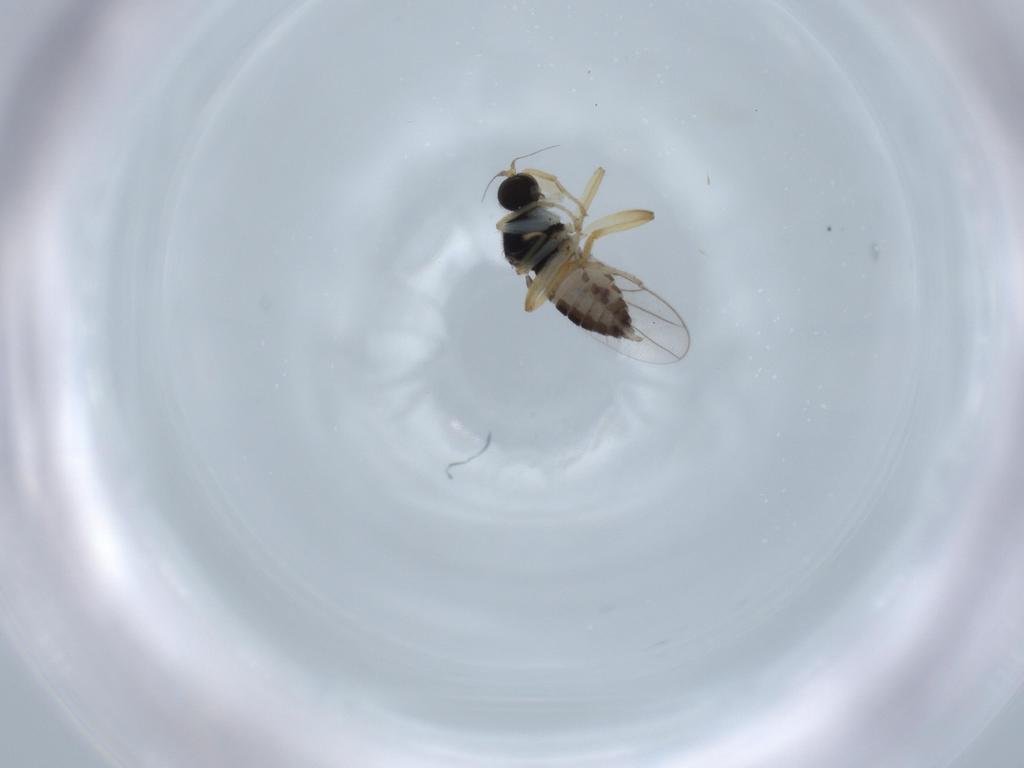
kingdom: Animalia
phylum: Arthropoda
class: Insecta
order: Diptera
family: Hybotidae
